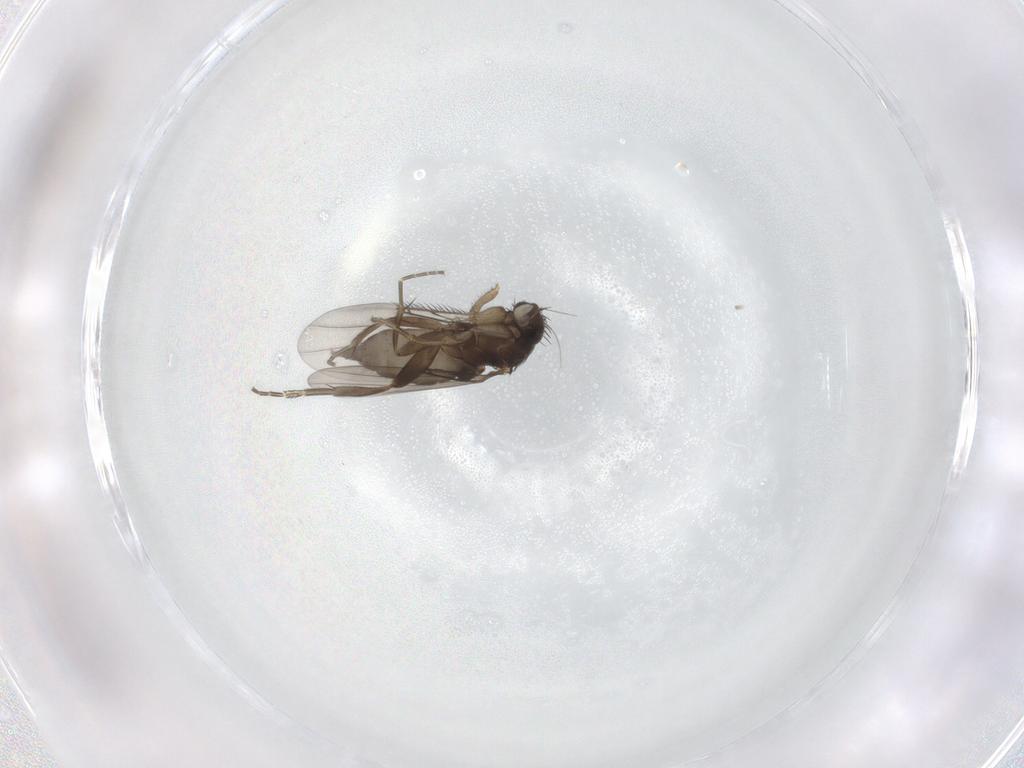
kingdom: Animalia
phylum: Arthropoda
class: Insecta
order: Diptera
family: Phoridae
